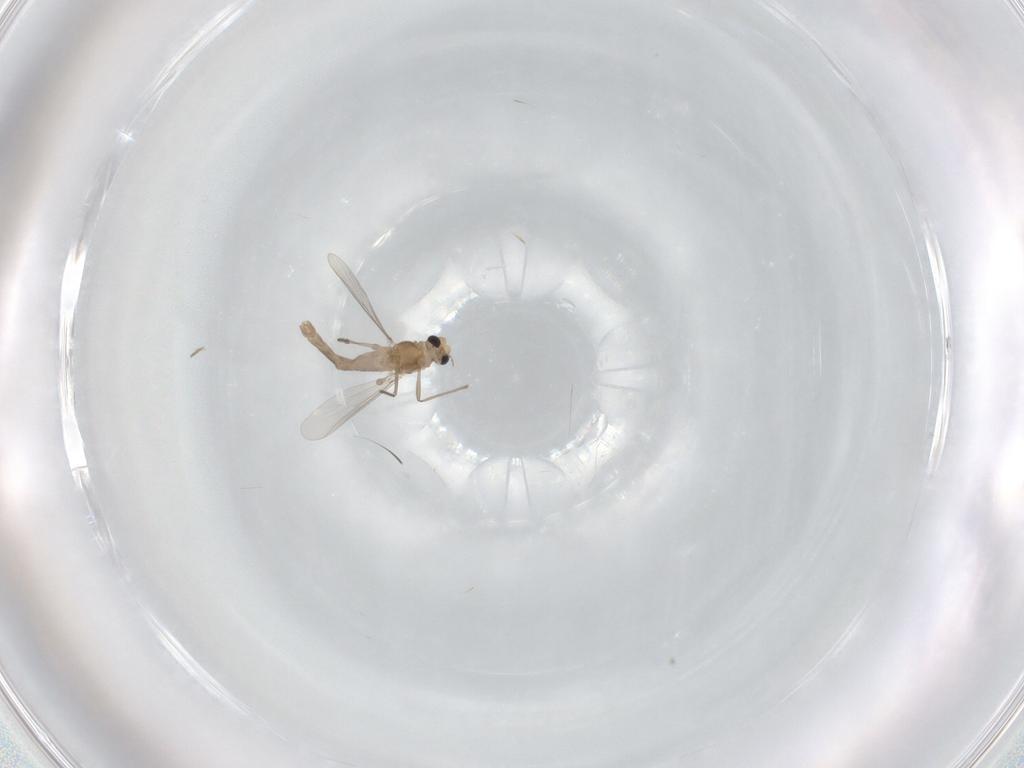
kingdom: Animalia
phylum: Arthropoda
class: Insecta
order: Diptera
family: Chironomidae
